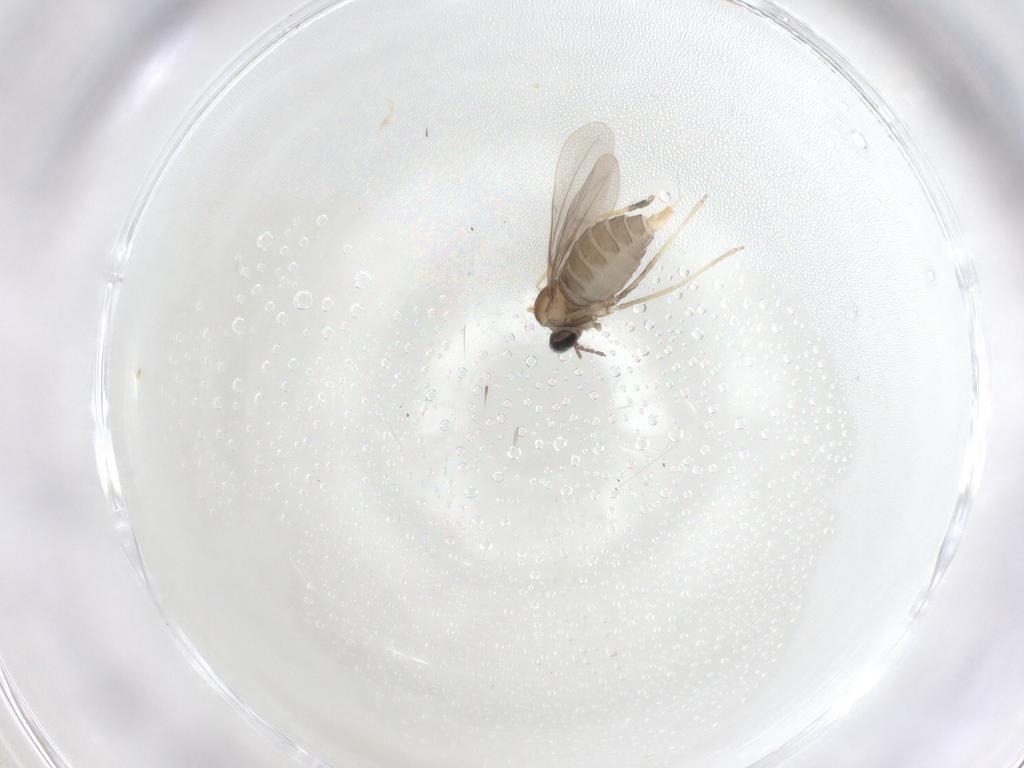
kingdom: Animalia
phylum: Arthropoda
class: Insecta
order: Diptera
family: Cecidomyiidae
